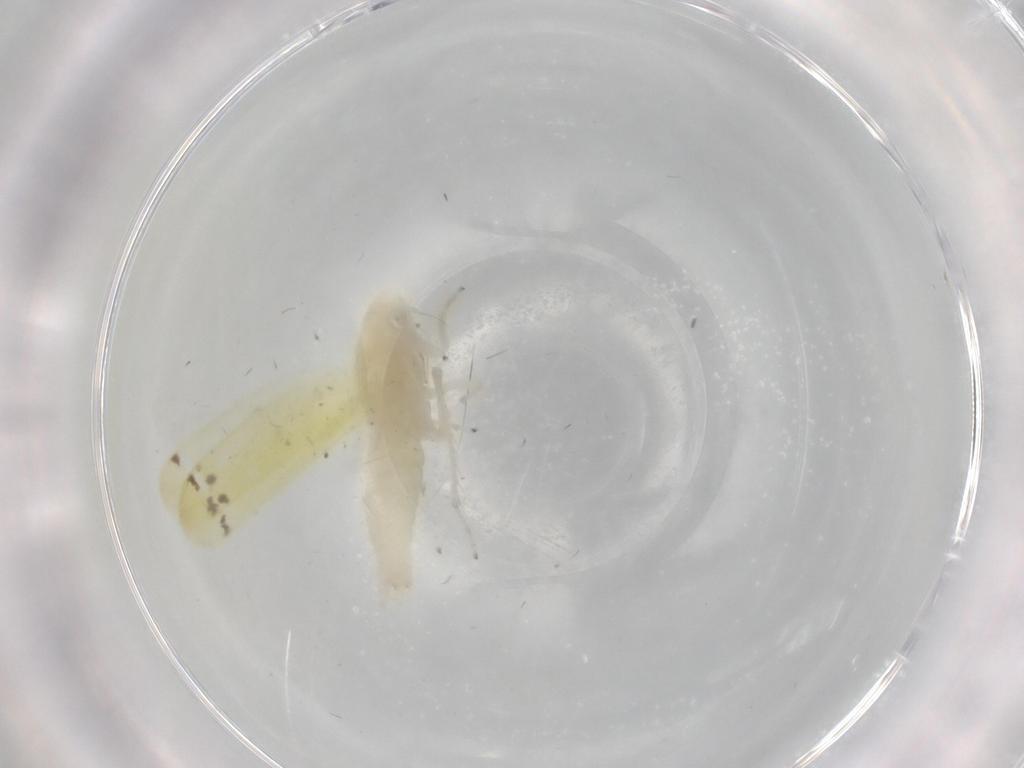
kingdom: Animalia
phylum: Arthropoda
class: Insecta
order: Hemiptera
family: Cicadellidae
